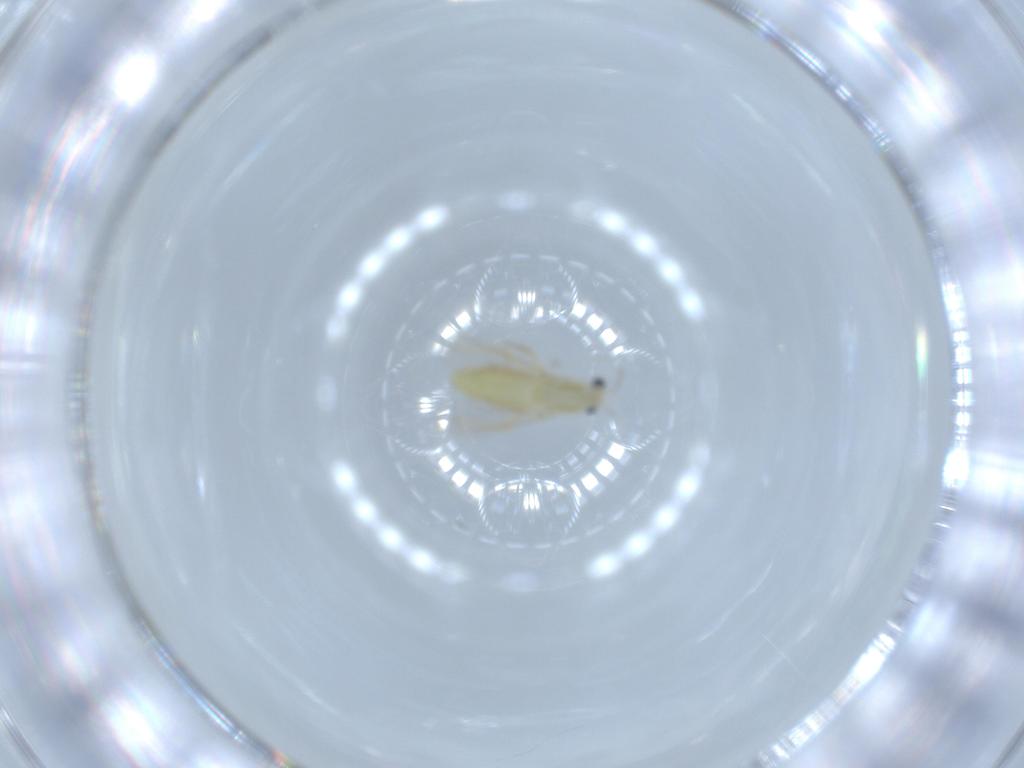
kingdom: Animalia
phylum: Arthropoda
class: Insecta
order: Diptera
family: Chironomidae
